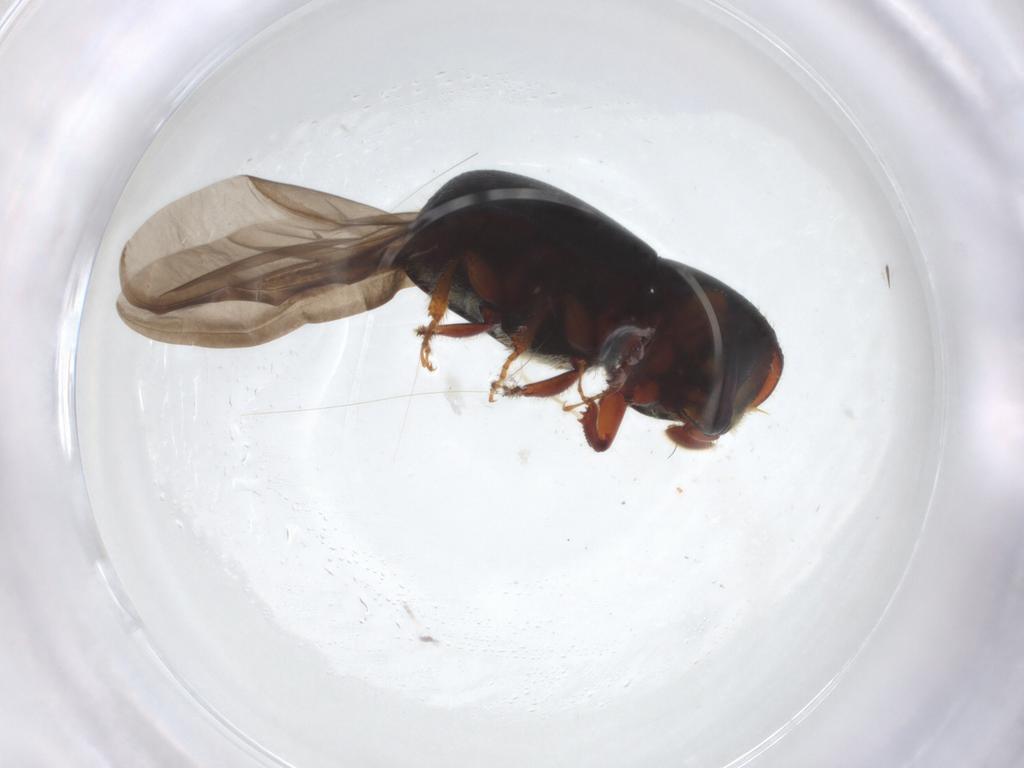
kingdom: Animalia
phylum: Arthropoda
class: Insecta
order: Coleoptera
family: Curculionidae
